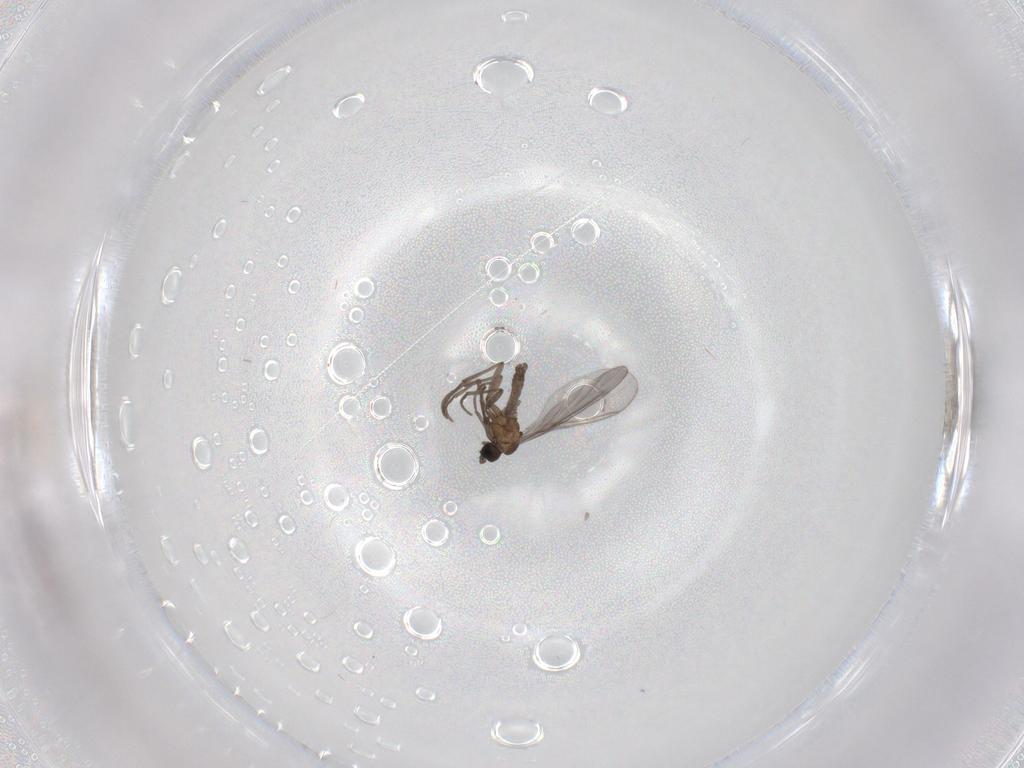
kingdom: Animalia
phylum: Arthropoda
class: Insecta
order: Diptera
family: Sciaridae
